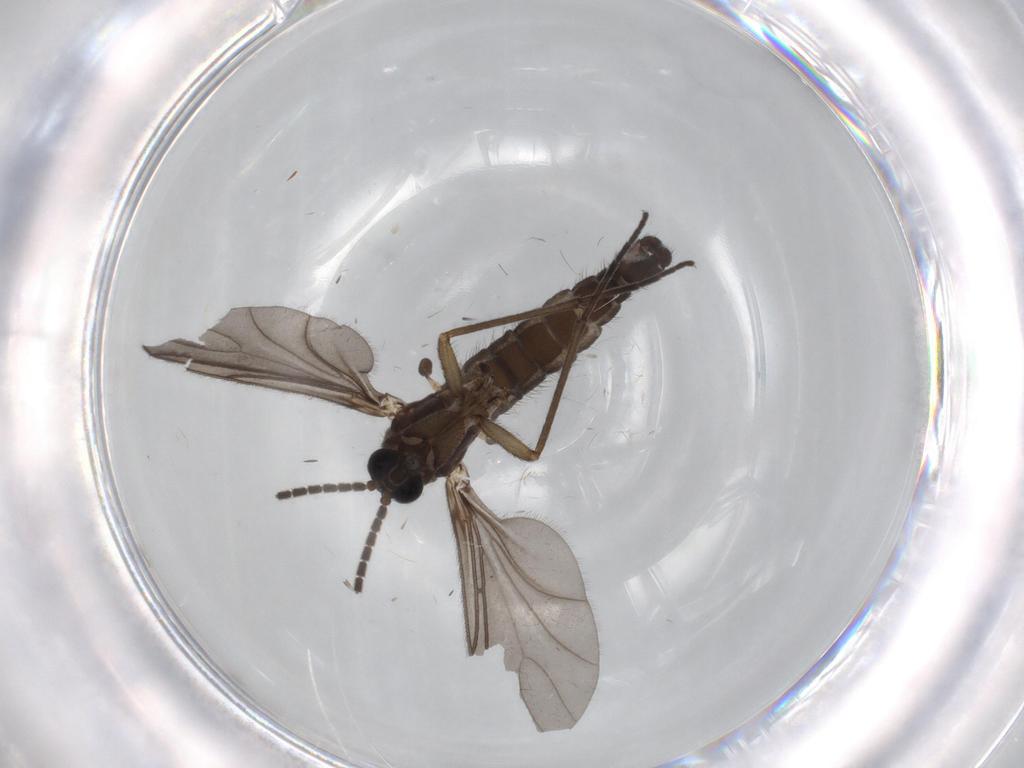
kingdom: Animalia
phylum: Arthropoda
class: Insecta
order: Diptera
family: Sciaridae
